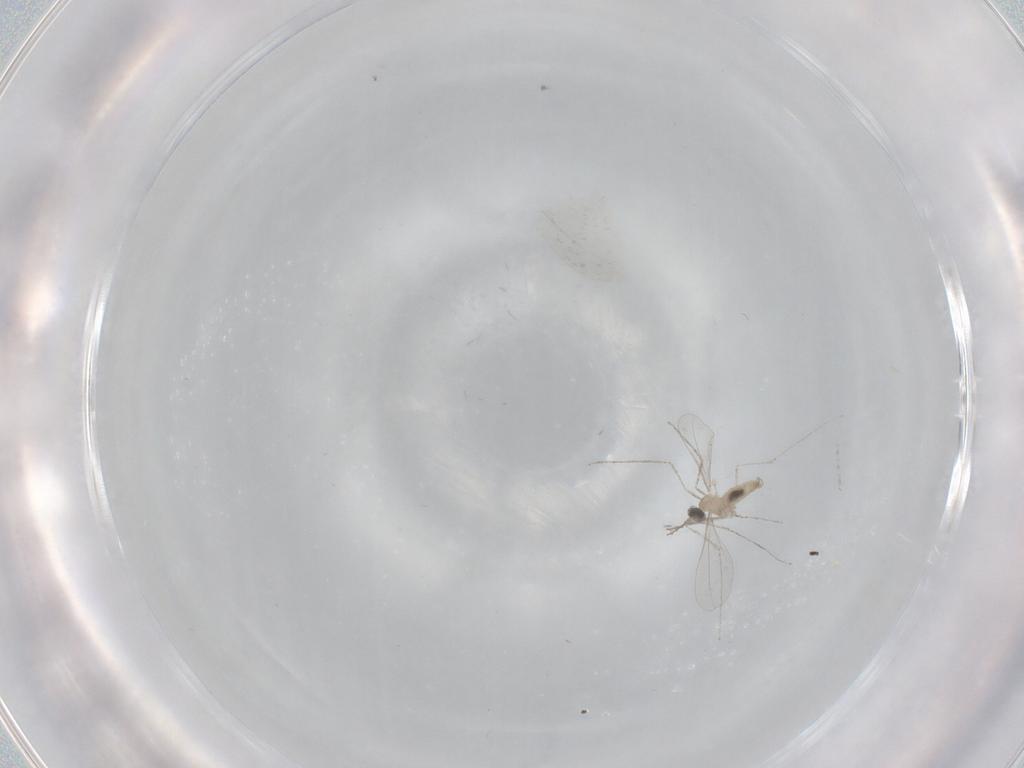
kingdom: Animalia
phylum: Arthropoda
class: Insecta
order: Diptera
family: Cecidomyiidae
